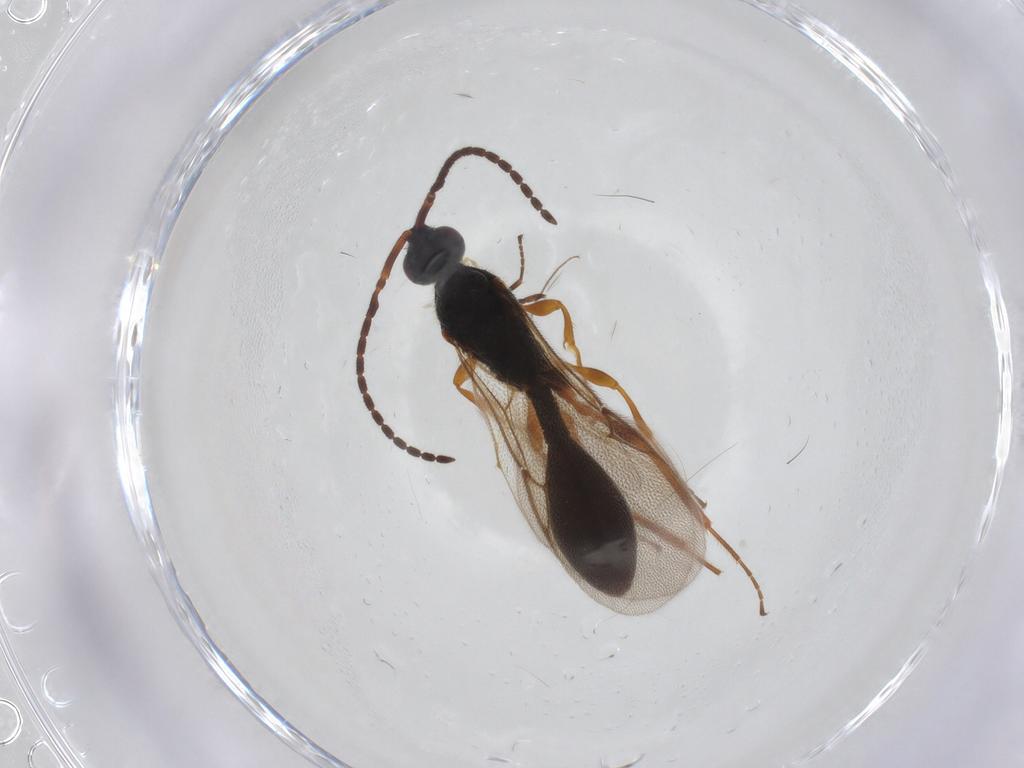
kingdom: Animalia
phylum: Arthropoda
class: Insecta
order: Hymenoptera
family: Braconidae
